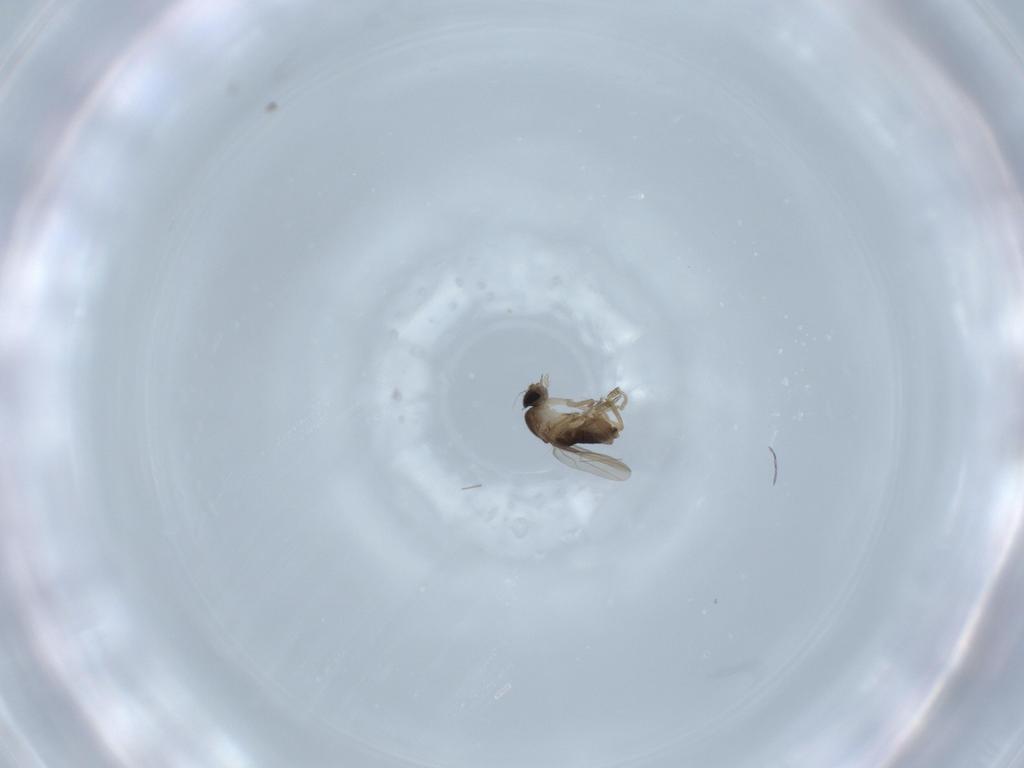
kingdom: Animalia
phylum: Arthropoda
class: Insecta
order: Diptera
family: Phoridae
